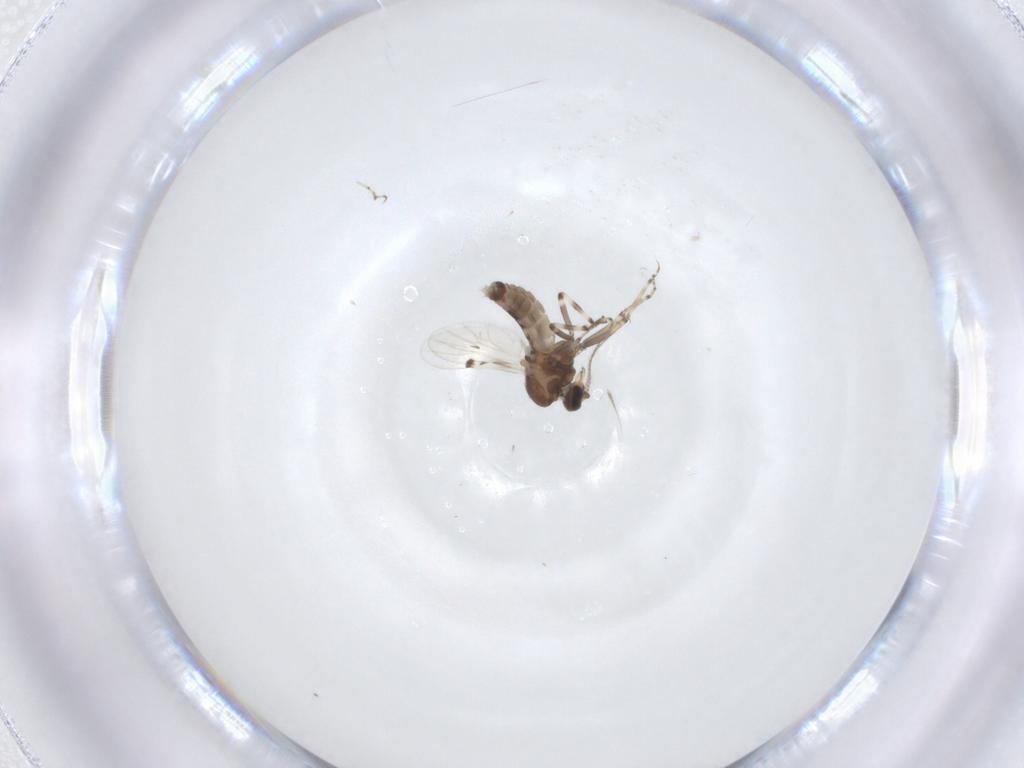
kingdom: Animalia
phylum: Arthropoda
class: Insecta
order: Diptera
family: Ceratopogonidae
